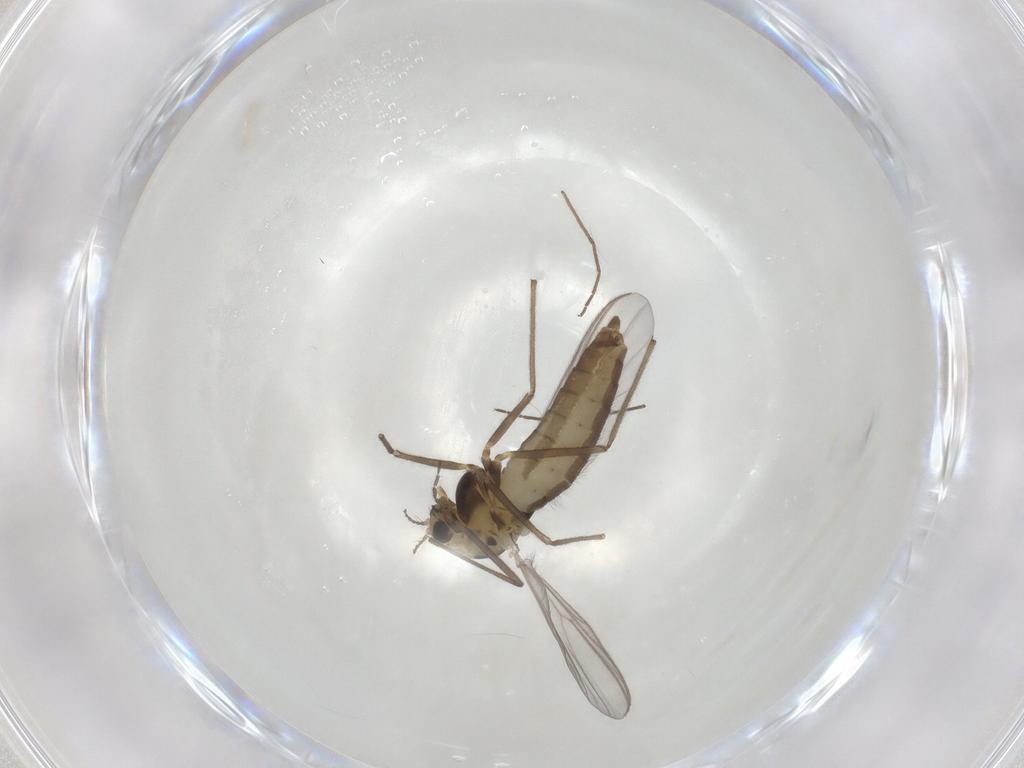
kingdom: Animalia
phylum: Arthropoda
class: Insecta
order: Diptera
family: Chironomidae
